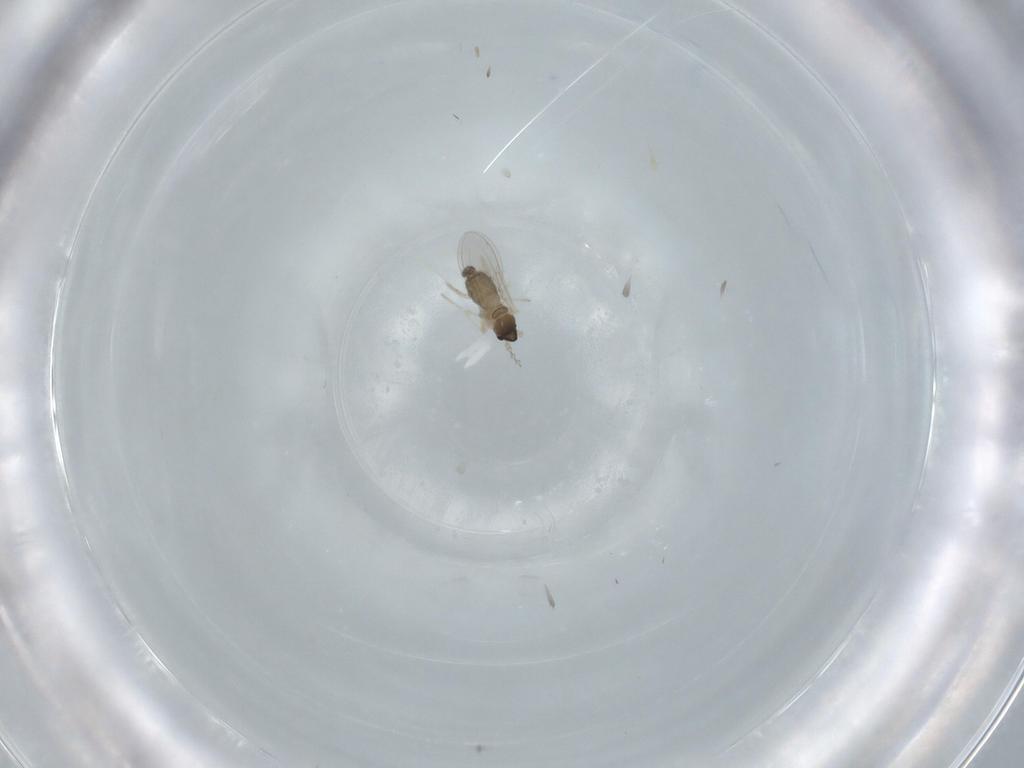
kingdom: Animalia
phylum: Arthropoda
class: Insecta
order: Diptera
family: Cecidomyiidae
